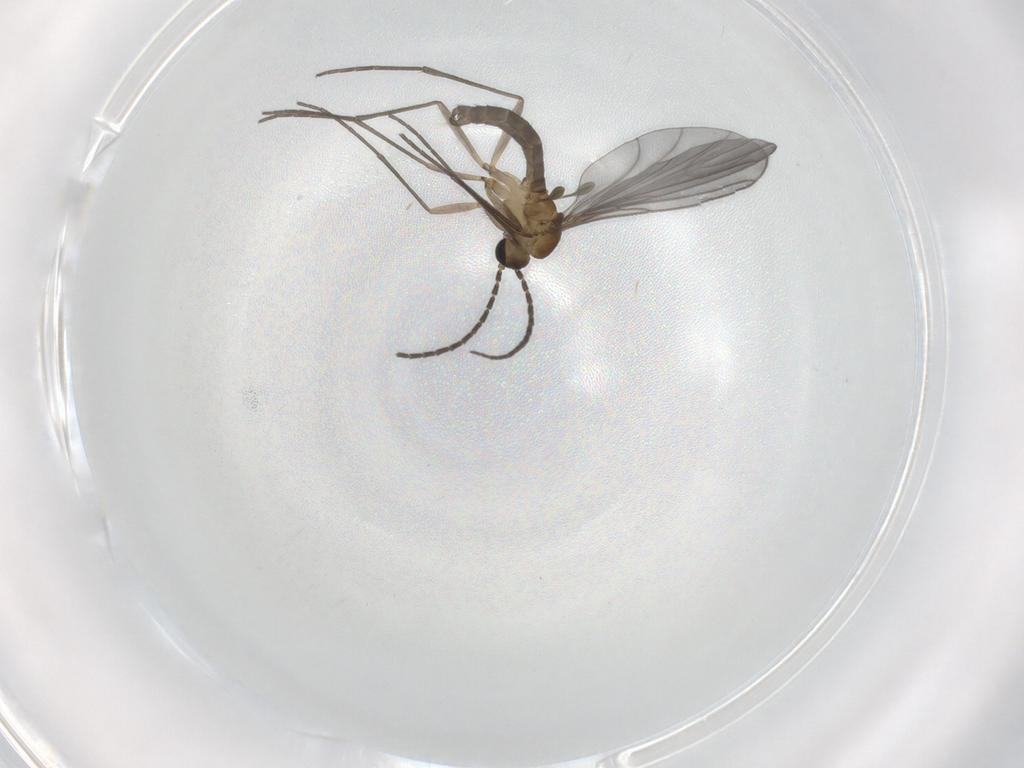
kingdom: Animalia
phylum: Arthropoda
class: Insecta
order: Diptera
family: Sciaridae
